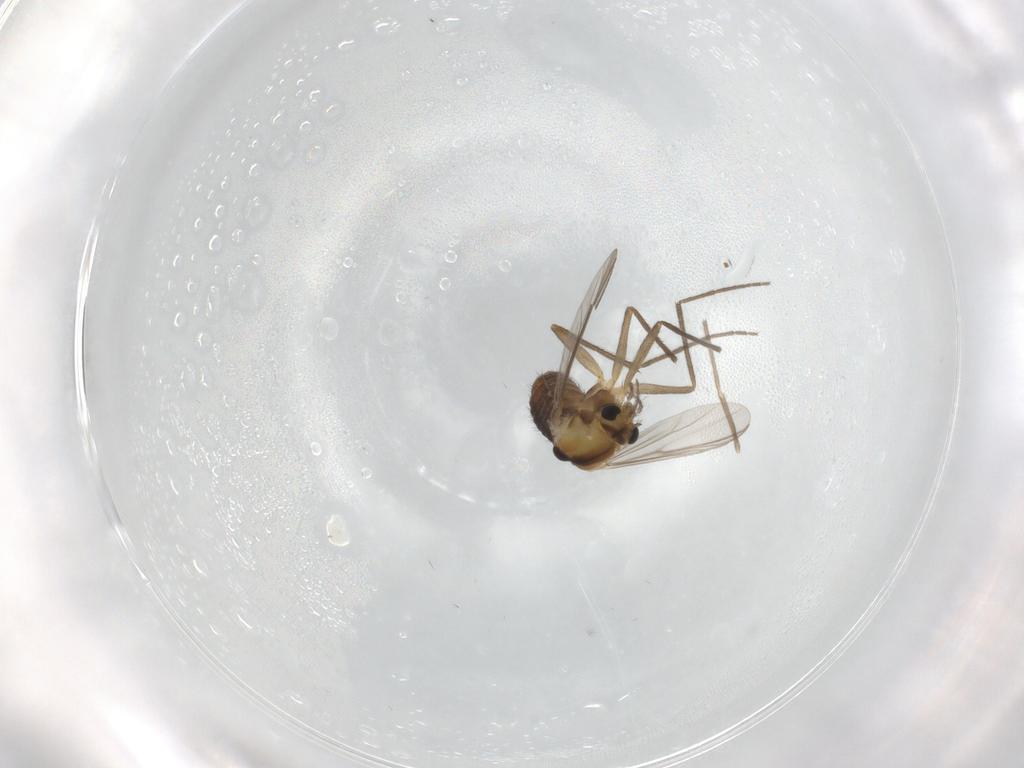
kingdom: Animalia
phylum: Arthropoda
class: Insecta
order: Diptera
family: Chironomidae
